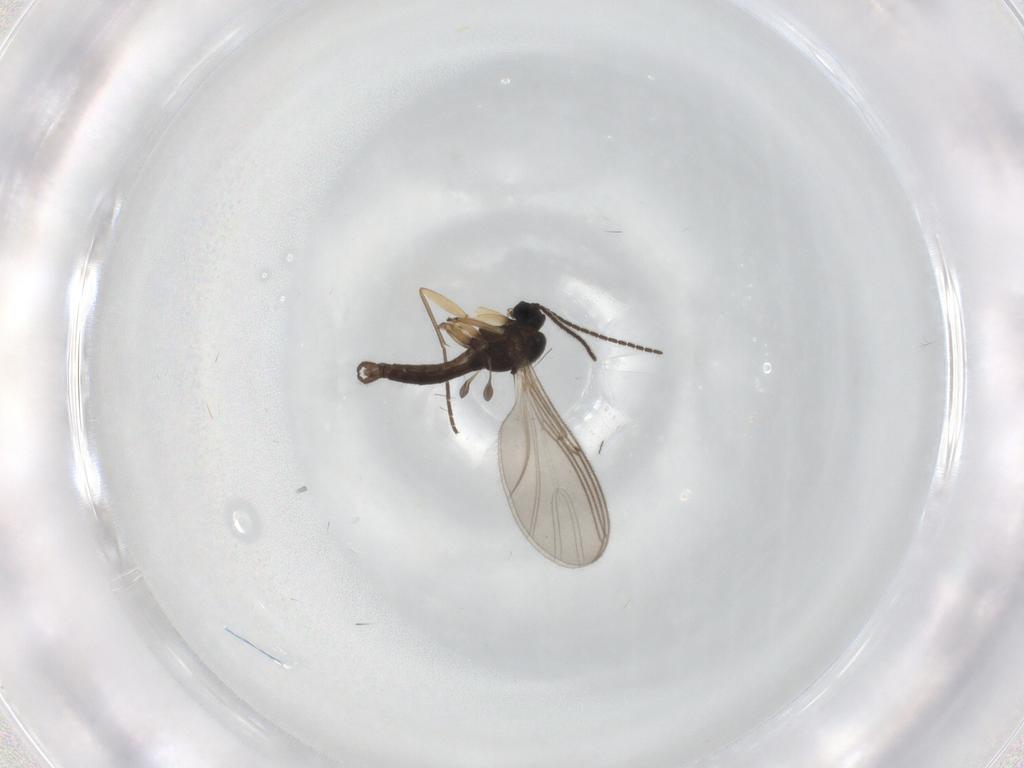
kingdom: Animalia
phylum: Arthropoda
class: Insecta
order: Diptera
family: Sciaridae
